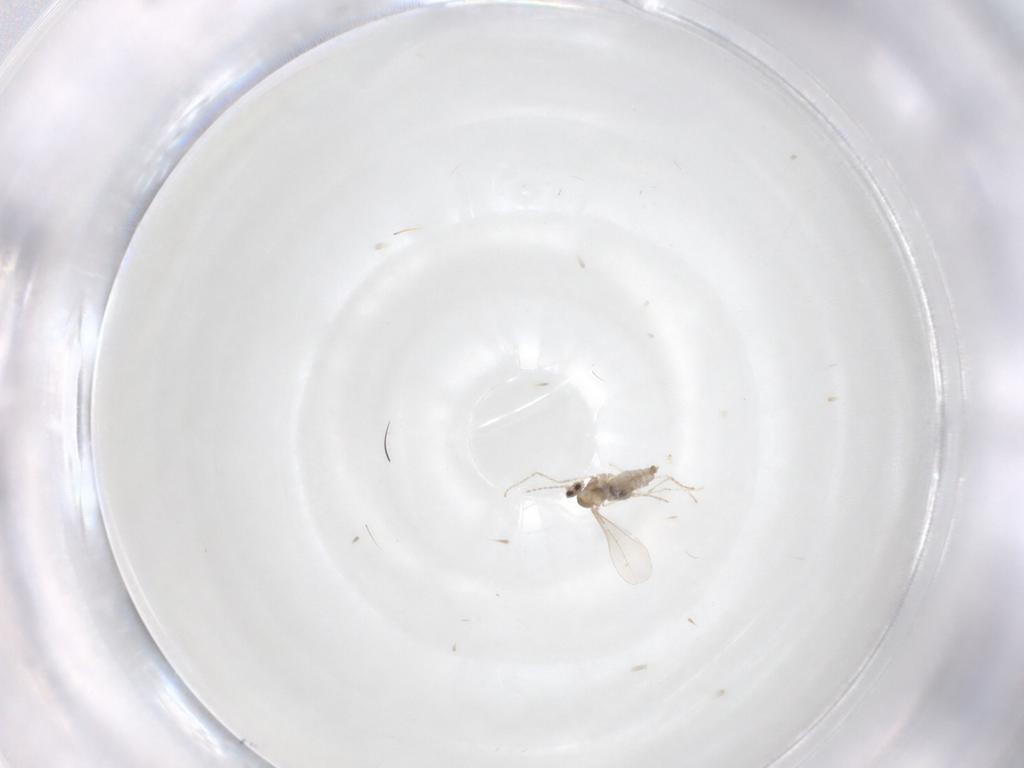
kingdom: Animalia
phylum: Arthropoda
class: Insecta
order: Diptera
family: Cecidomyiidae
